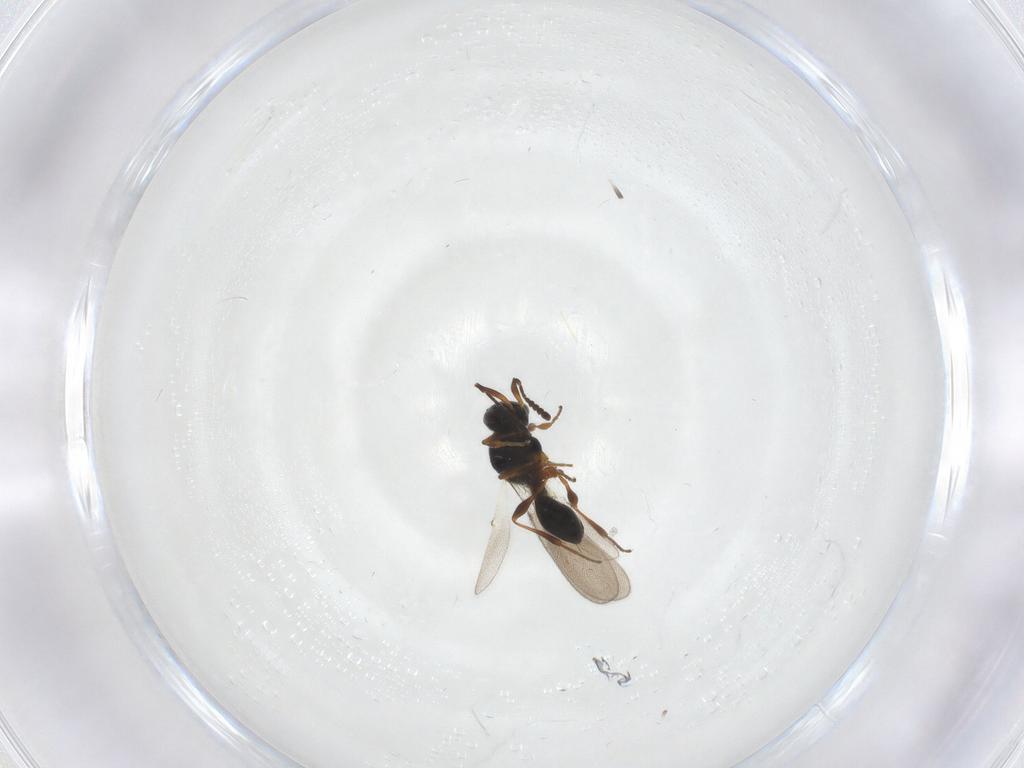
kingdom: Animalia
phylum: Arthropoda
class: Insecta
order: Hymenoptera
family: Platygastridae
